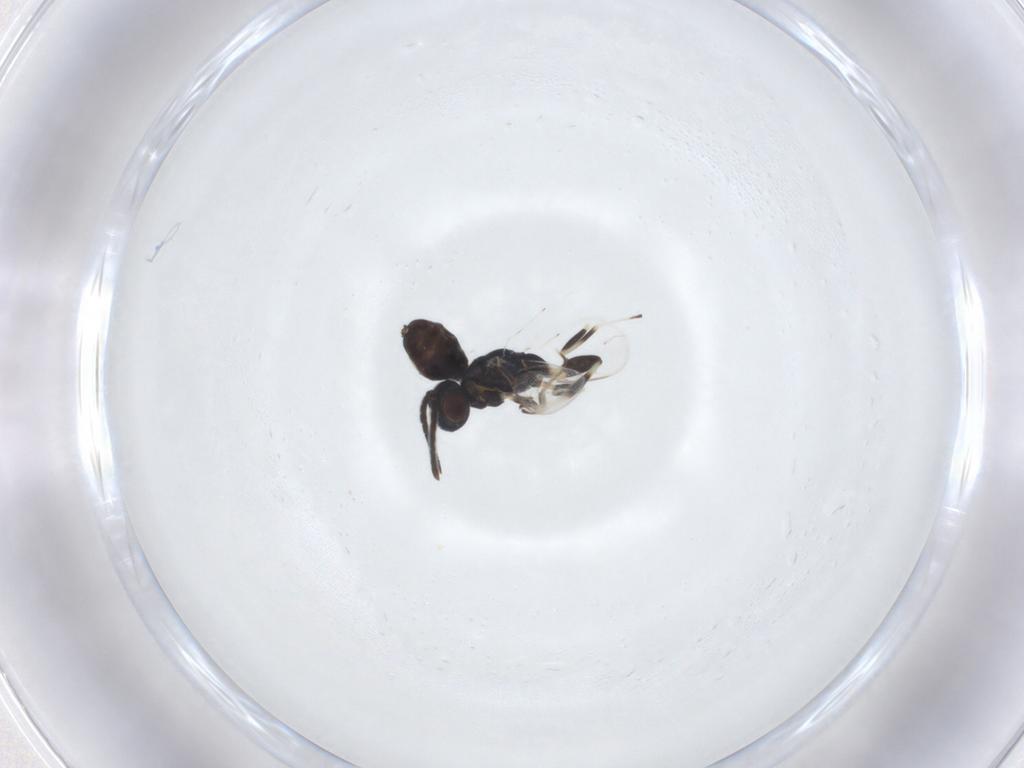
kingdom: Animalia
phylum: Arthropoda
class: Insecta
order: Hymenoptera
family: Eupelmidae
